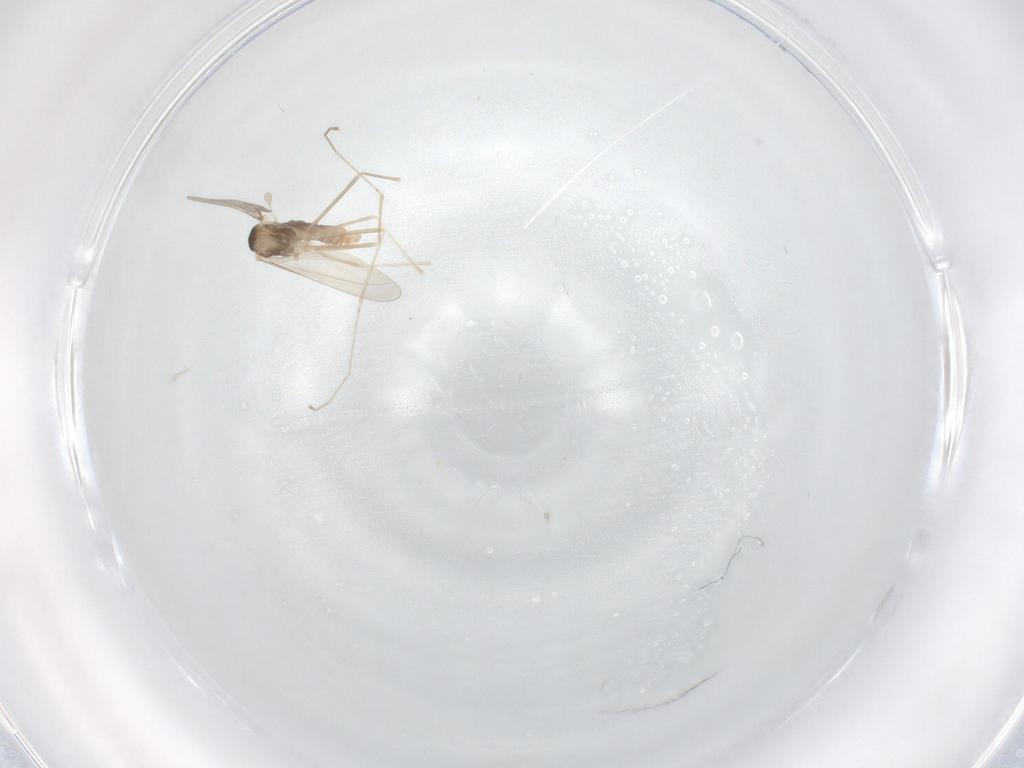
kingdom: Animalia
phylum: Arthropoda
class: Insecta
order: Diptera
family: Cecidomyiidae
